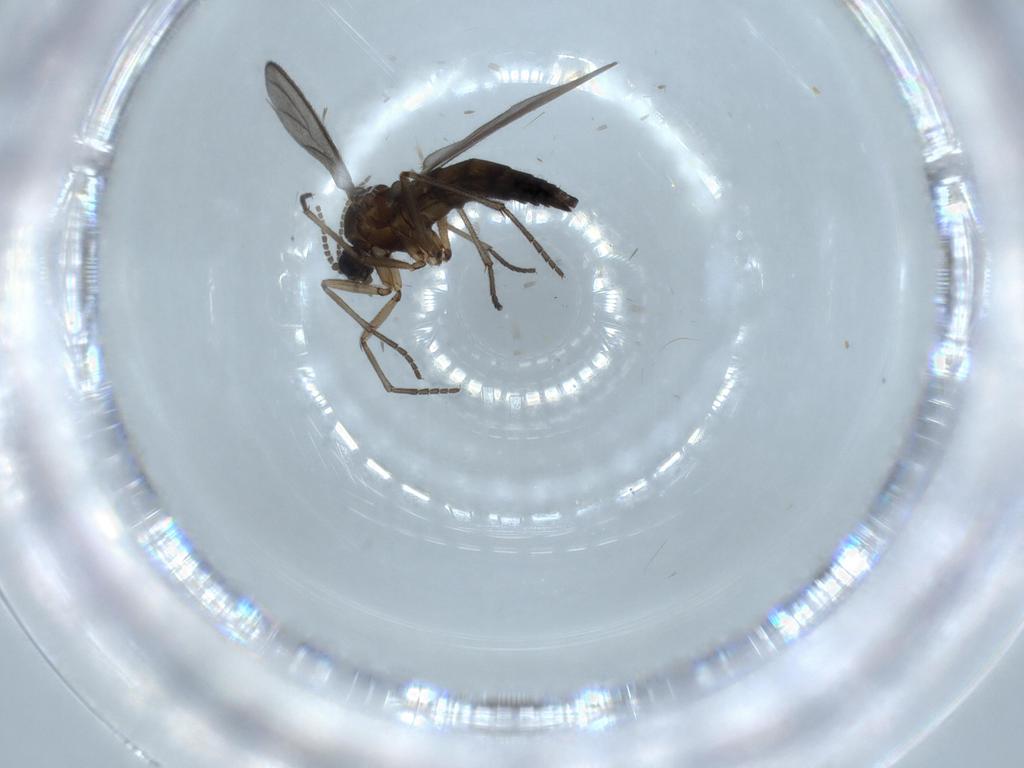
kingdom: Animalia
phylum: Arthropoda
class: Insecta
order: Diptera
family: Sciaridae
